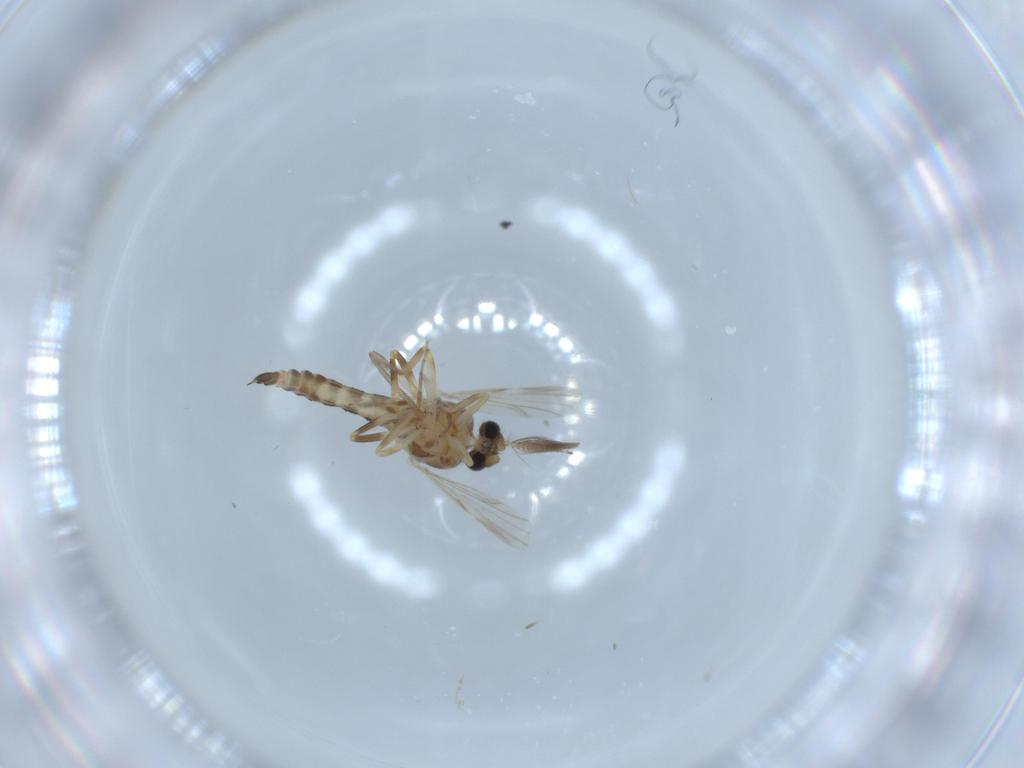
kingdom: Animalia
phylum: Arthropoda
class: Insecta
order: Diptera
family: Ceratopogonidae
